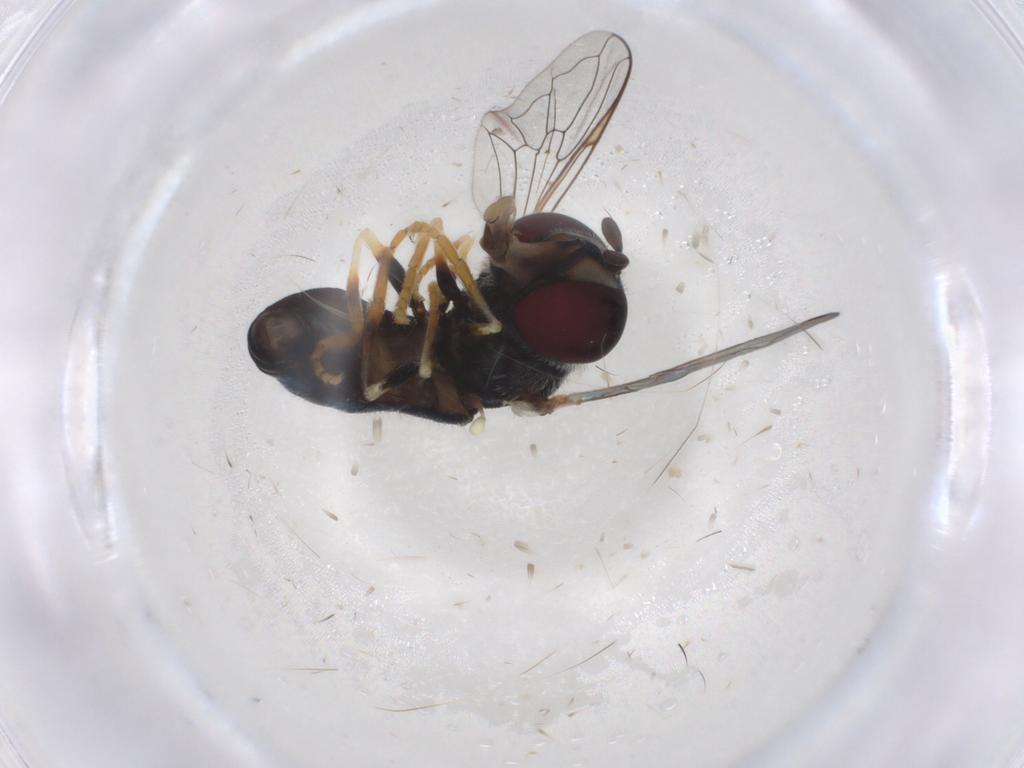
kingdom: Animalia
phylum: Arthropoda
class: Insecta
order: Diptera
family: Syrphidae
